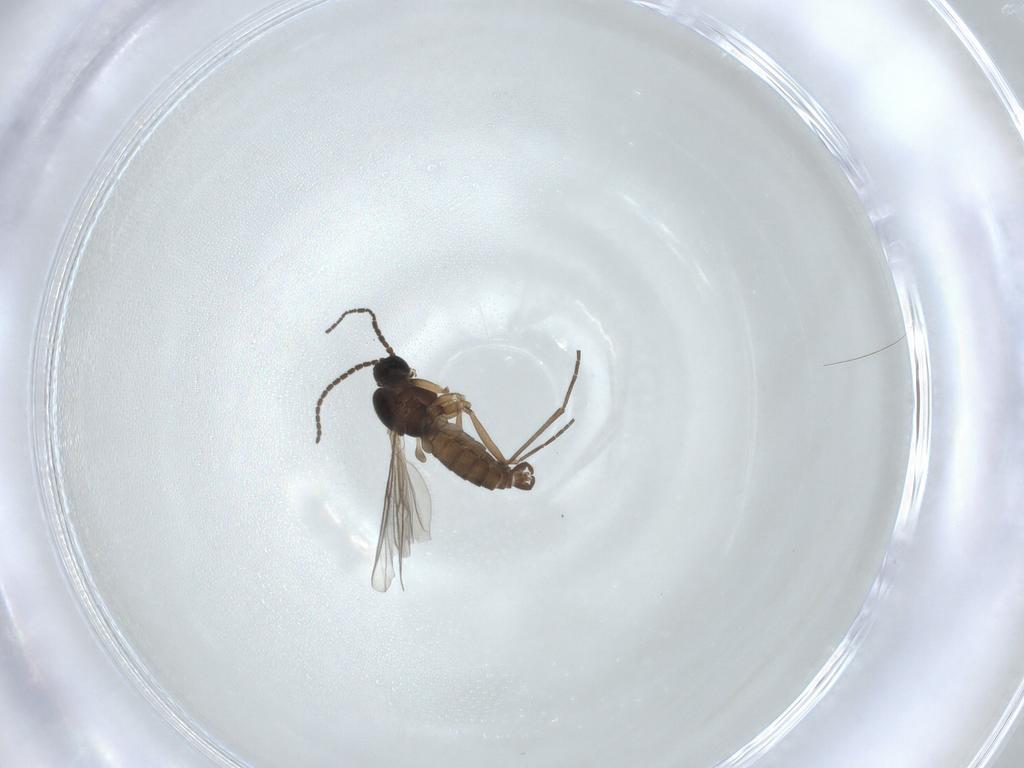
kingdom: Animalia
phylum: Arthropoda
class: Insecta
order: Diptera
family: Sciaridae
